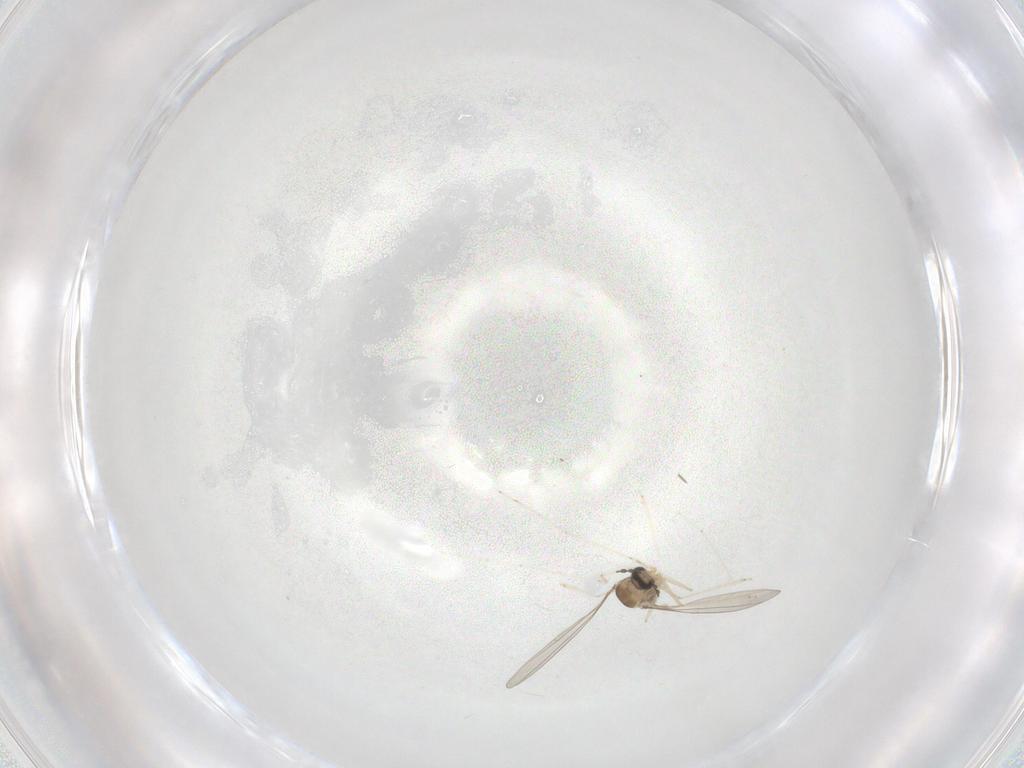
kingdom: Animalia
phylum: Arthropoda
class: Insecta
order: Diptera
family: Cecidomyiidae
